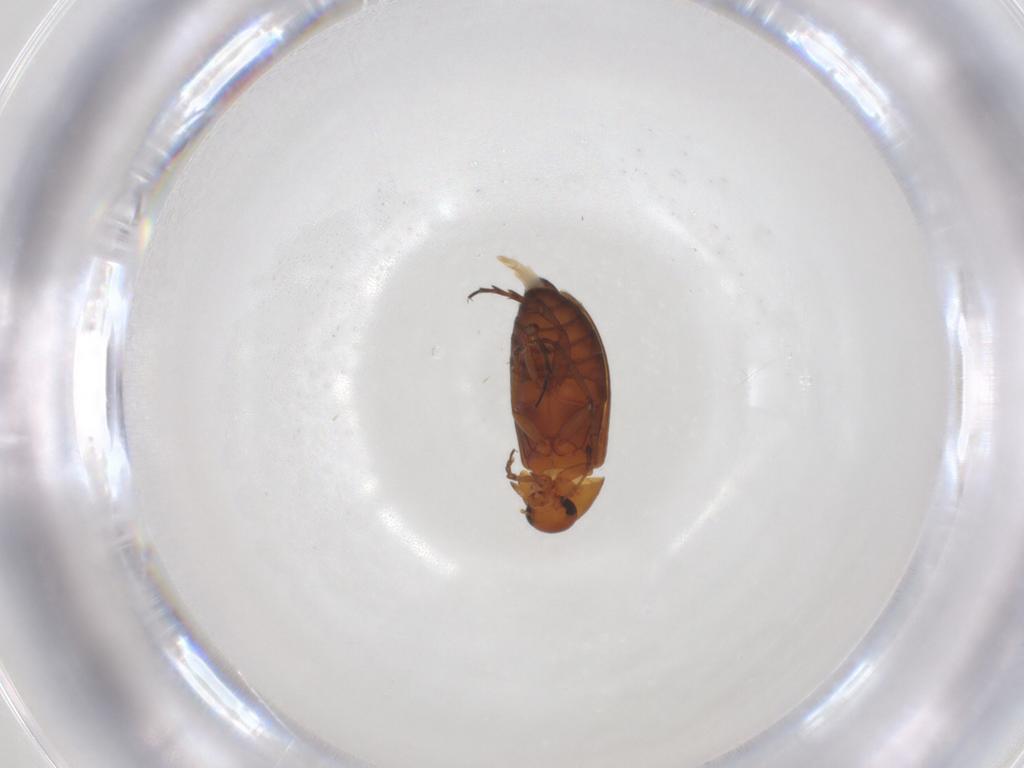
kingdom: Animalia
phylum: Arthropoda
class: Insecta
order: Coleoptera
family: Scraptiidae
